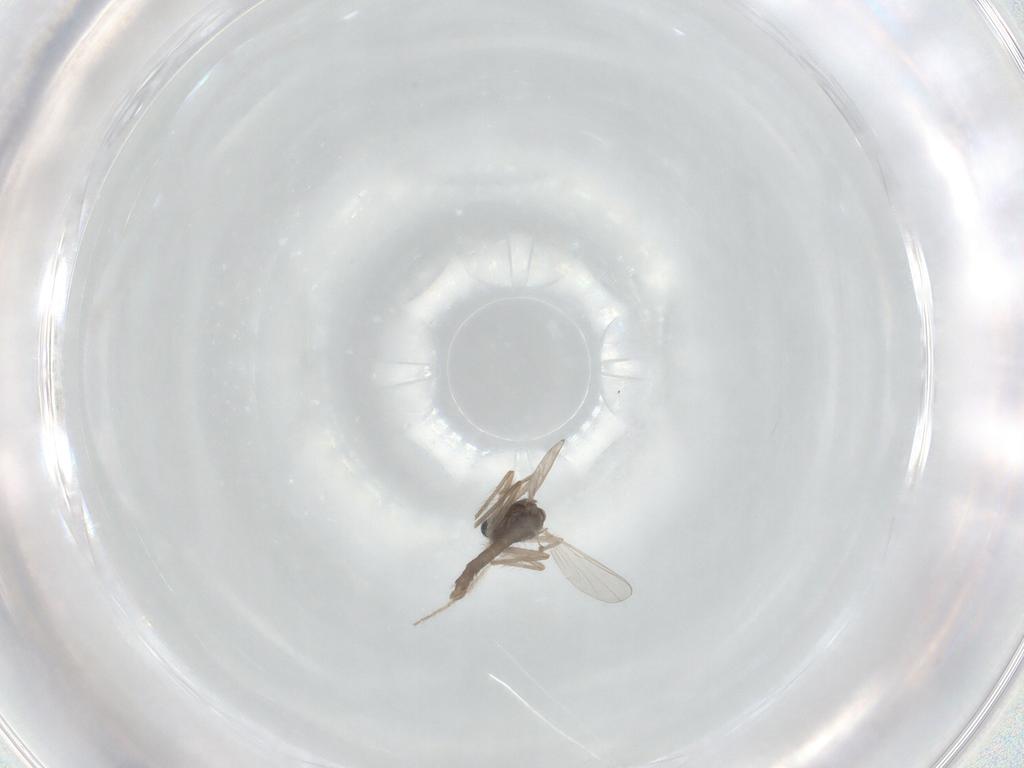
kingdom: Animalia
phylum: Arthropoda
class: Insecta
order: Diptera
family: Chironomidae
